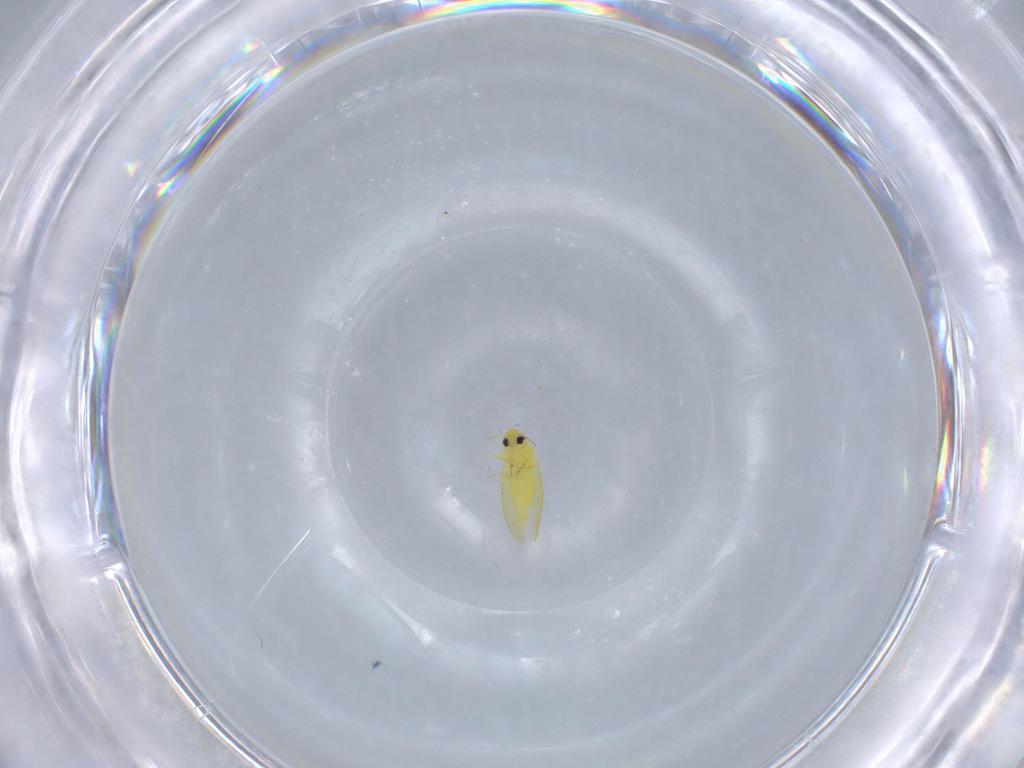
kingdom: Animalia
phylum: Arthropoda
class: Insecta
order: Hemiptera
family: Aleyrodidae
